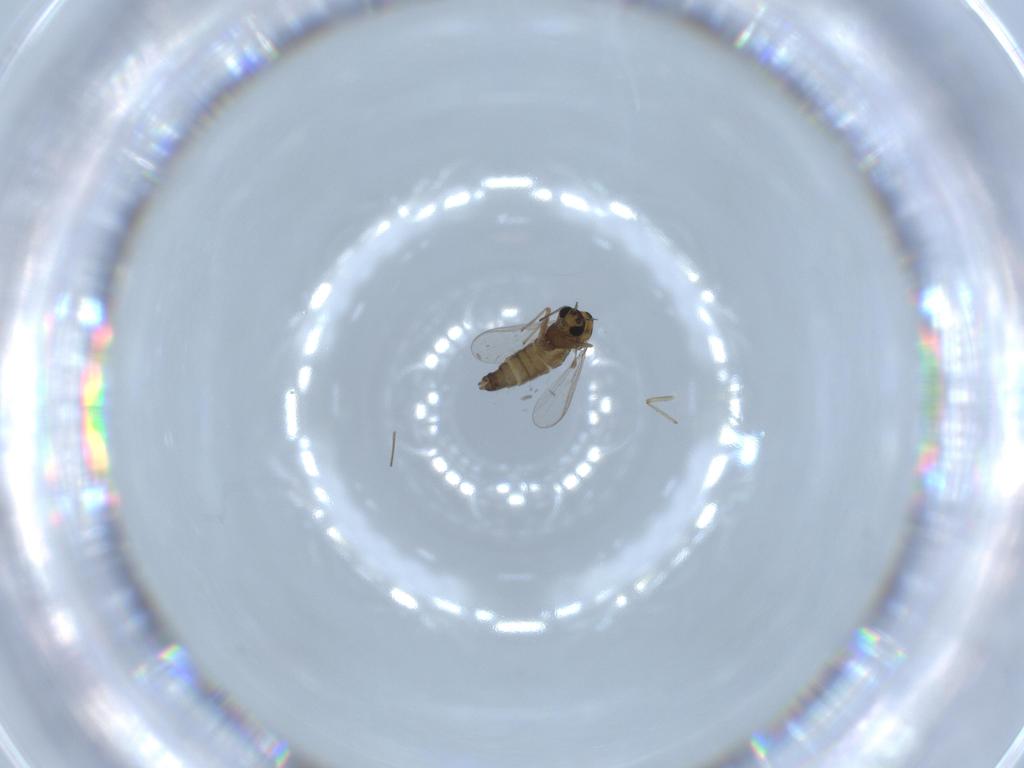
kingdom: Animalia
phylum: Arthropoda
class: Insecta
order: Diptera
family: Chironomidae
